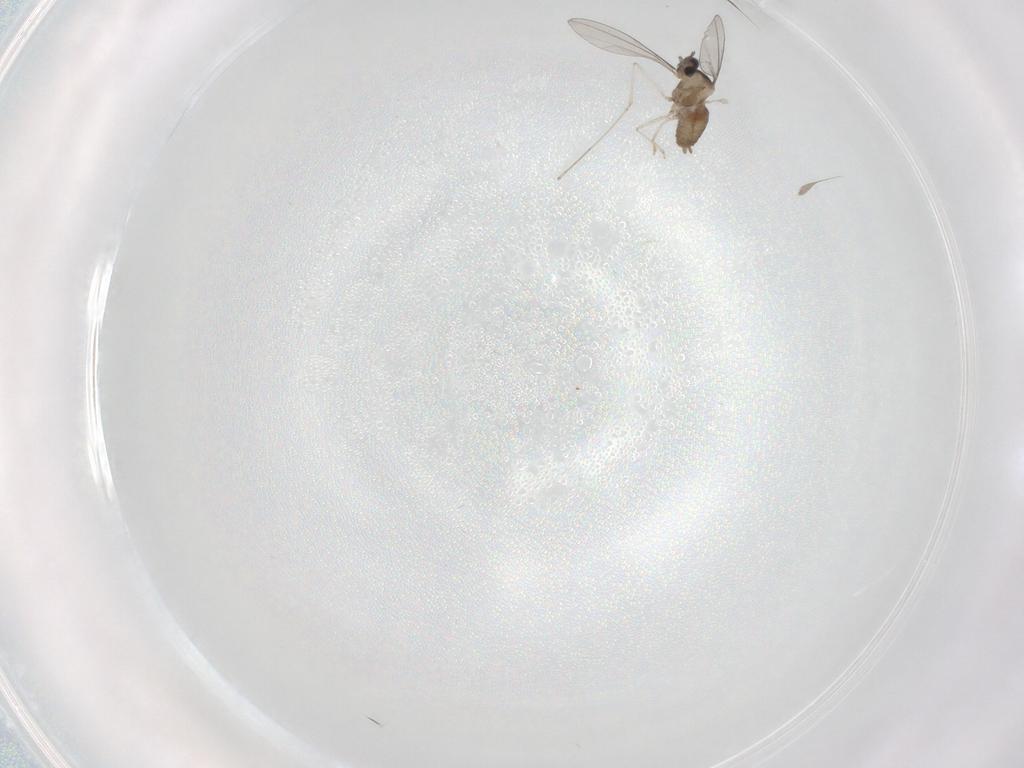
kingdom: Animalia
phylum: Arthropoda
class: Insecta
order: Diptera
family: Cecidomyiidae
